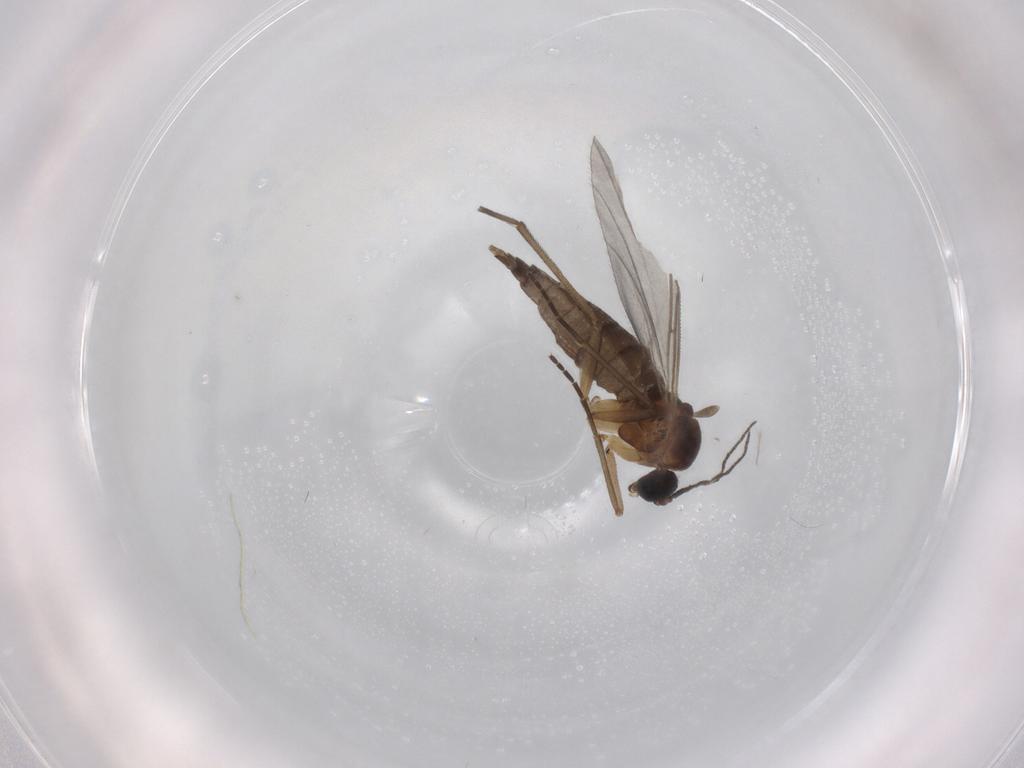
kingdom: Animalia
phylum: Arthropoda
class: Insecta
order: Diptera
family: Sciaridae
